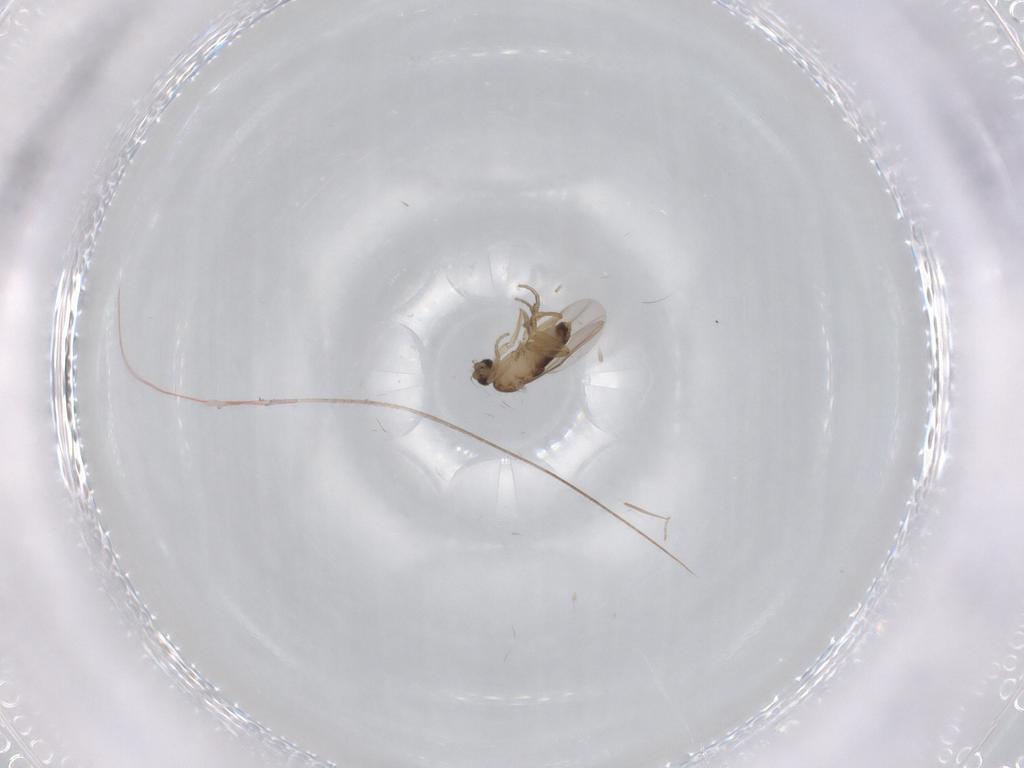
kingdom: Animalia
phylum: Arthropoda
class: Insecta
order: Diptera
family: Phoridae
